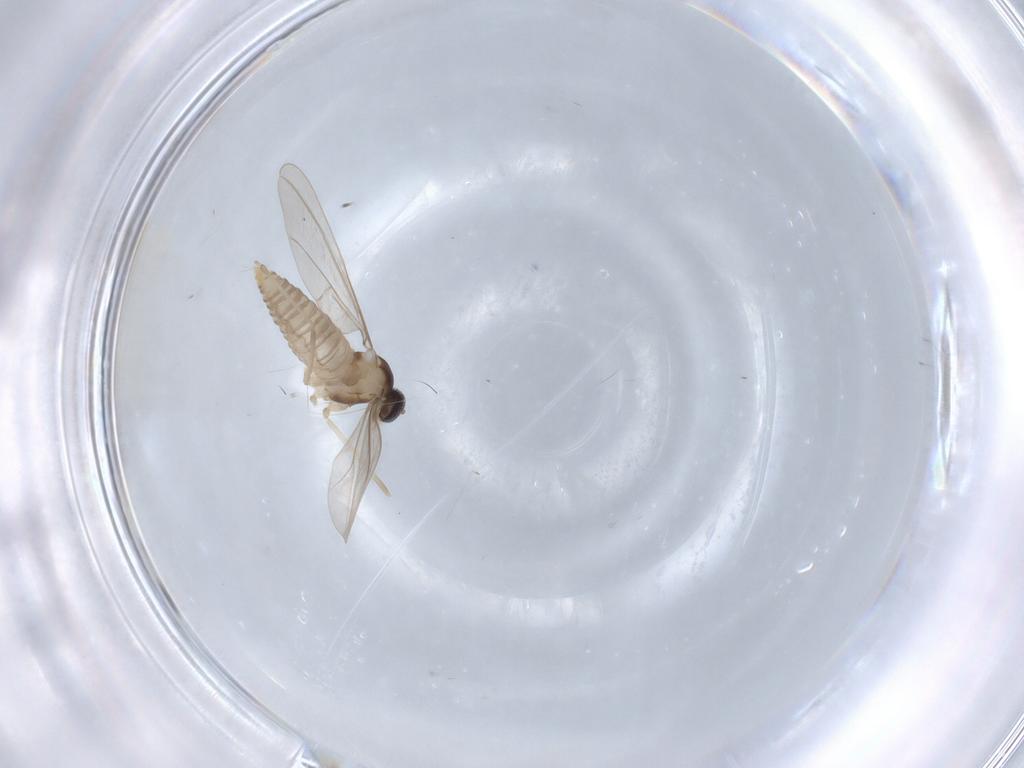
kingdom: Animalia
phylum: Arthropoda
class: Insecta
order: Diptera
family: Cecidomyiidae
